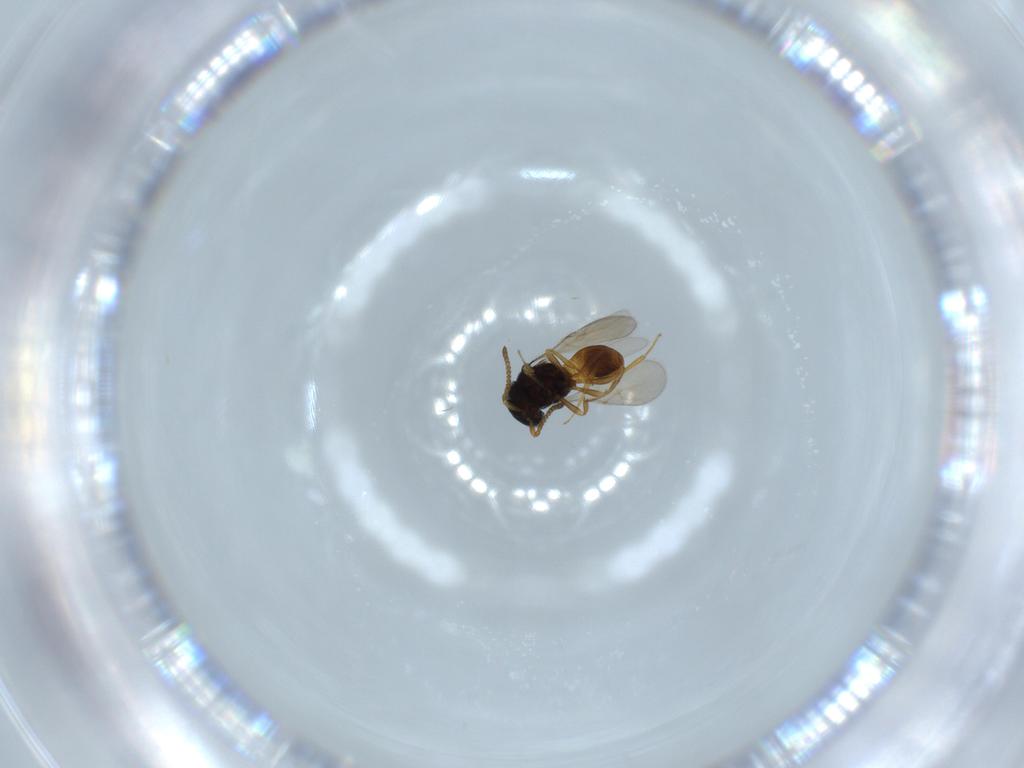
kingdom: Animalia
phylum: Arthropoda
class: Insecta
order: Hymenoptera
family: Scelionidae
